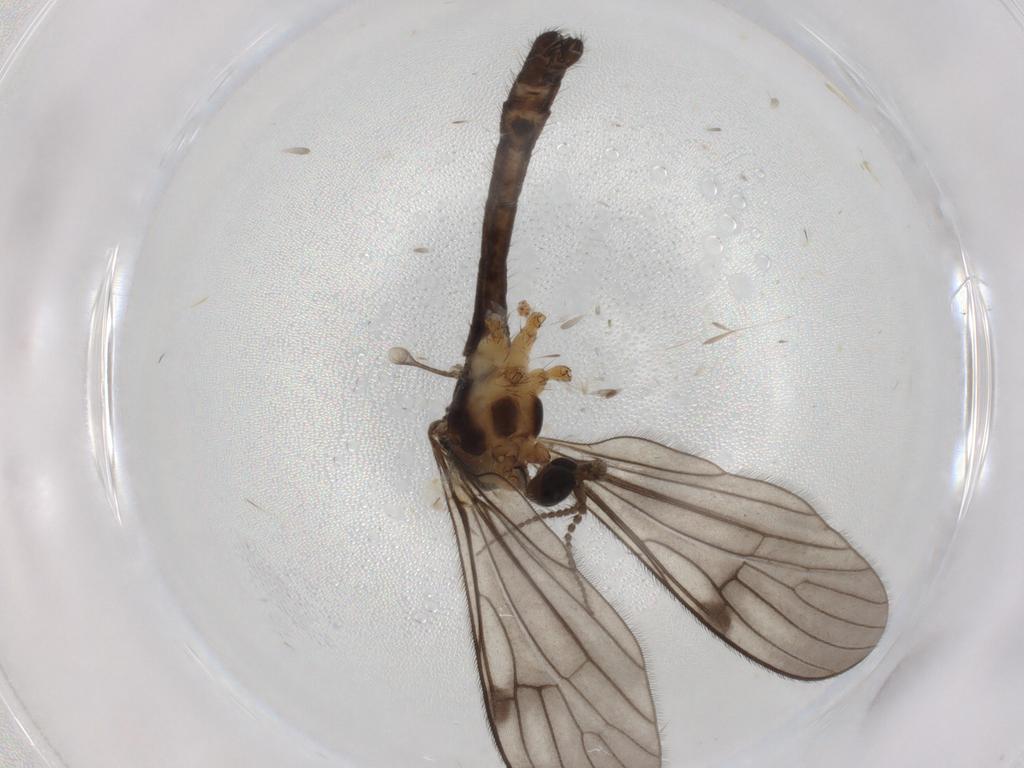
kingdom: Animalia
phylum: Arthropoda
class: Insecta
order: Diptera
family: Limoniidae
